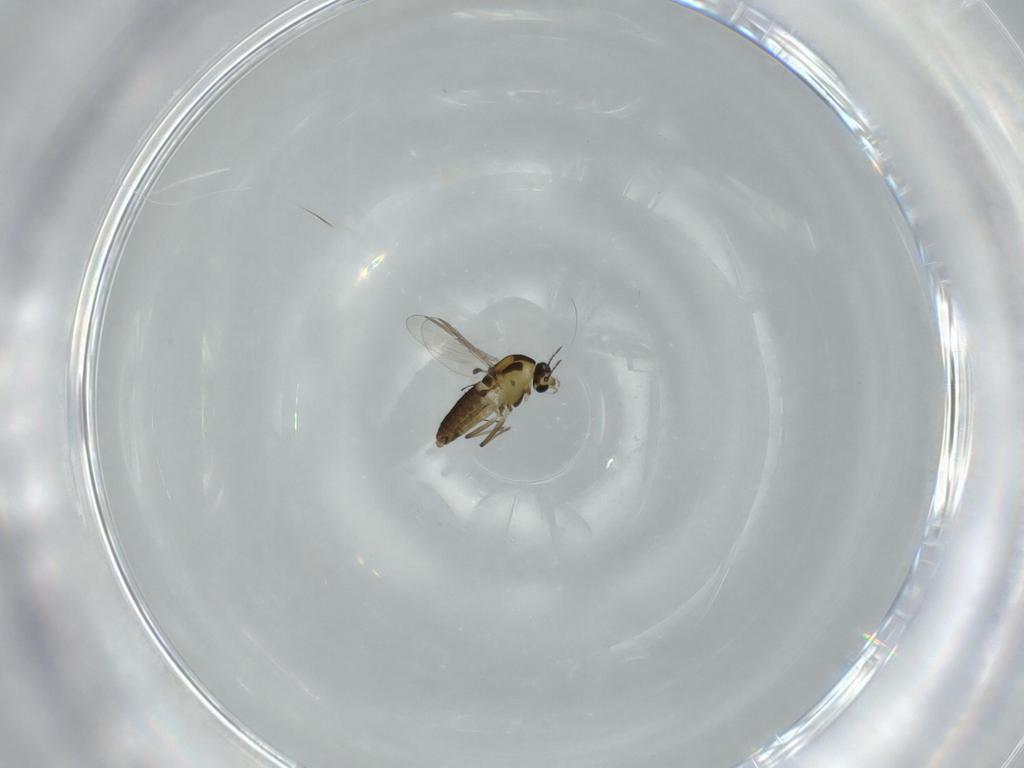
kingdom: Animalia
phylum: Arthropoda
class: Insecta
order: Diptera
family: Chironomidae
